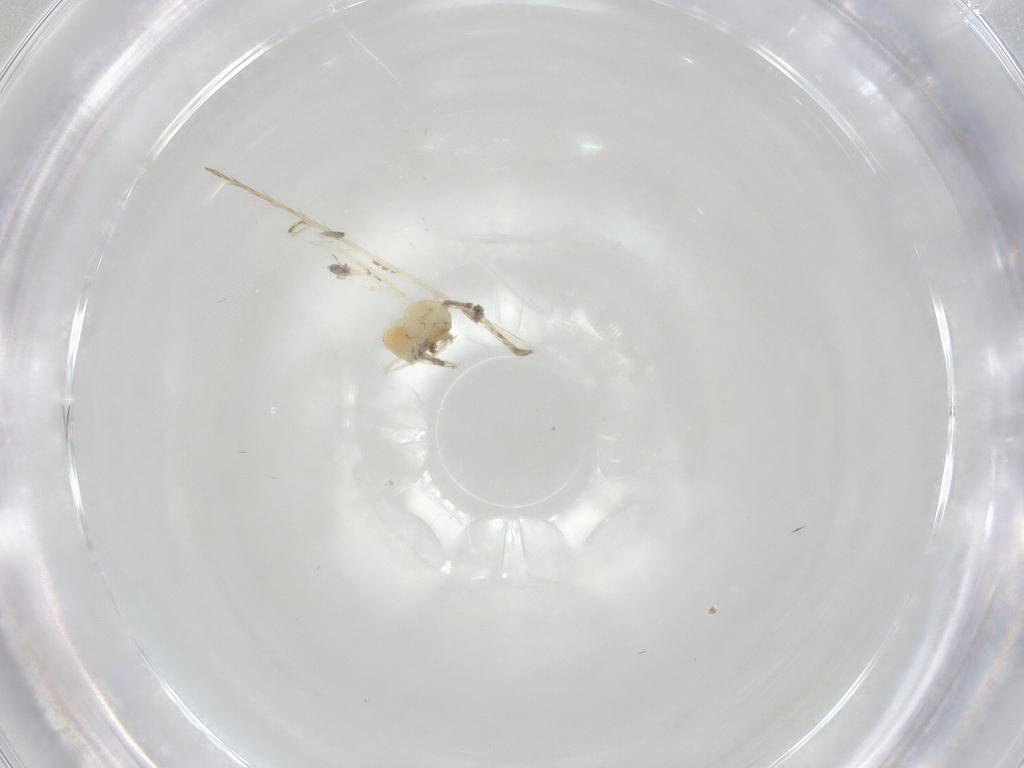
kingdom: Animalia
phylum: Arthropoda
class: Insecta
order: Hemiptera
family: Aleyrodidae
